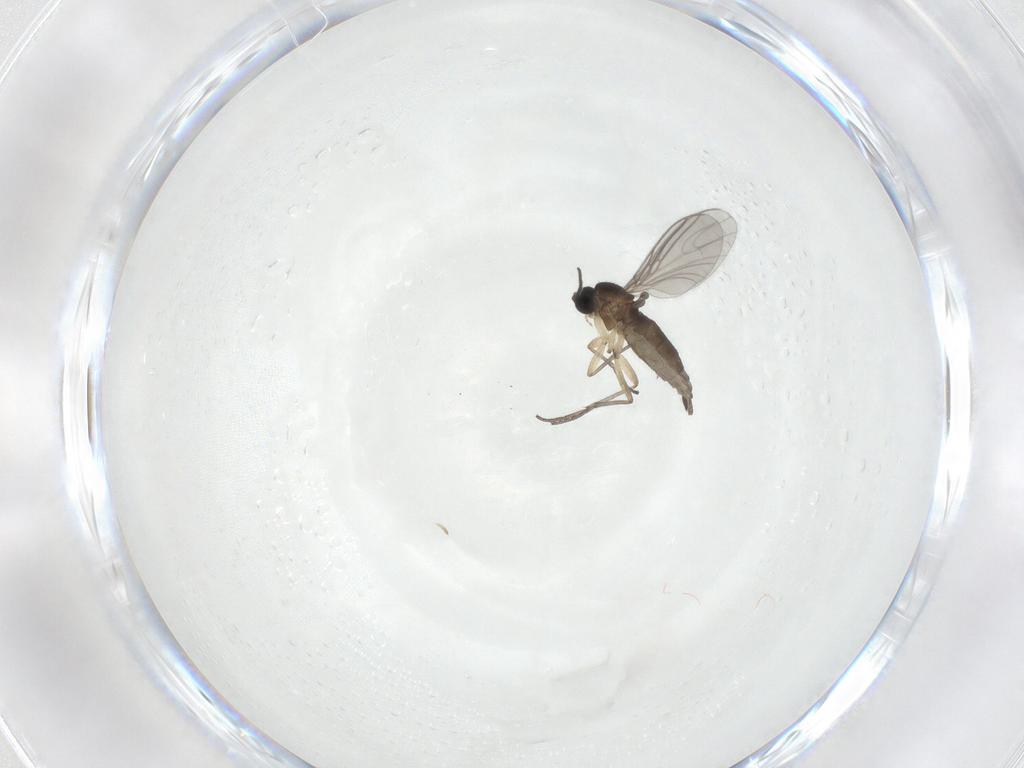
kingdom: Animalia
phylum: Arthropoda
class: Insecta
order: Diptera
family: Sciaridae
